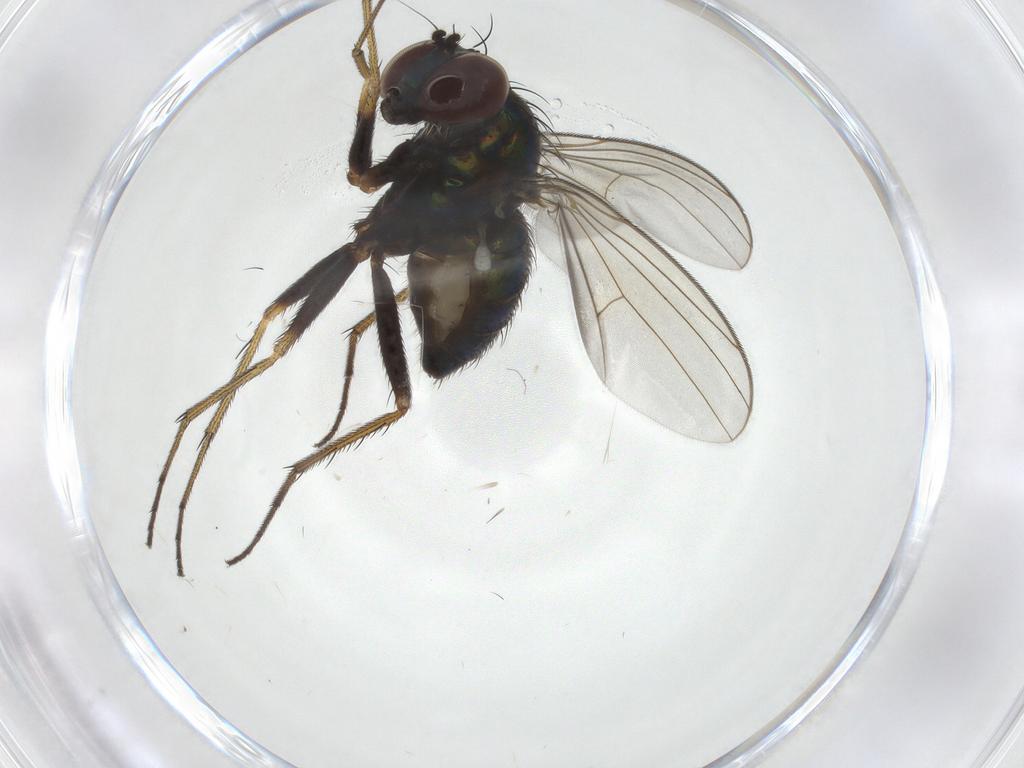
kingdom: Animalia
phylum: Arthropoda
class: Insecta
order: Diptera
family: Dolichopodidae
